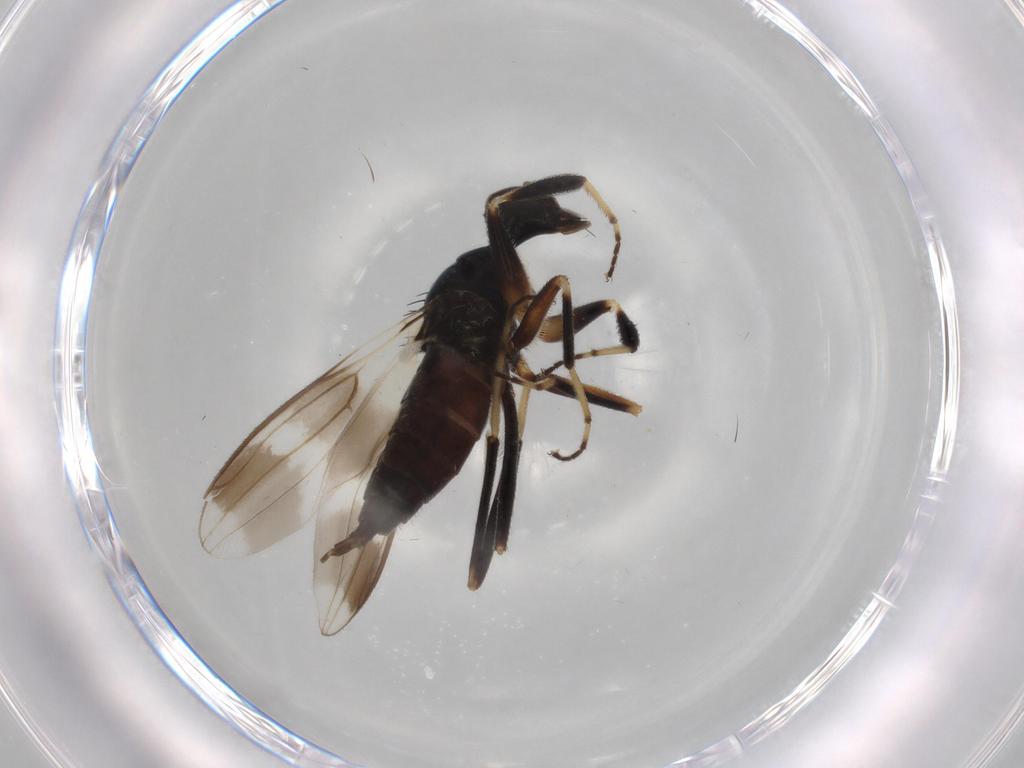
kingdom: Animalia
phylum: Arthropoda
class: Insecta
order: Diptera
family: Hybotidae
